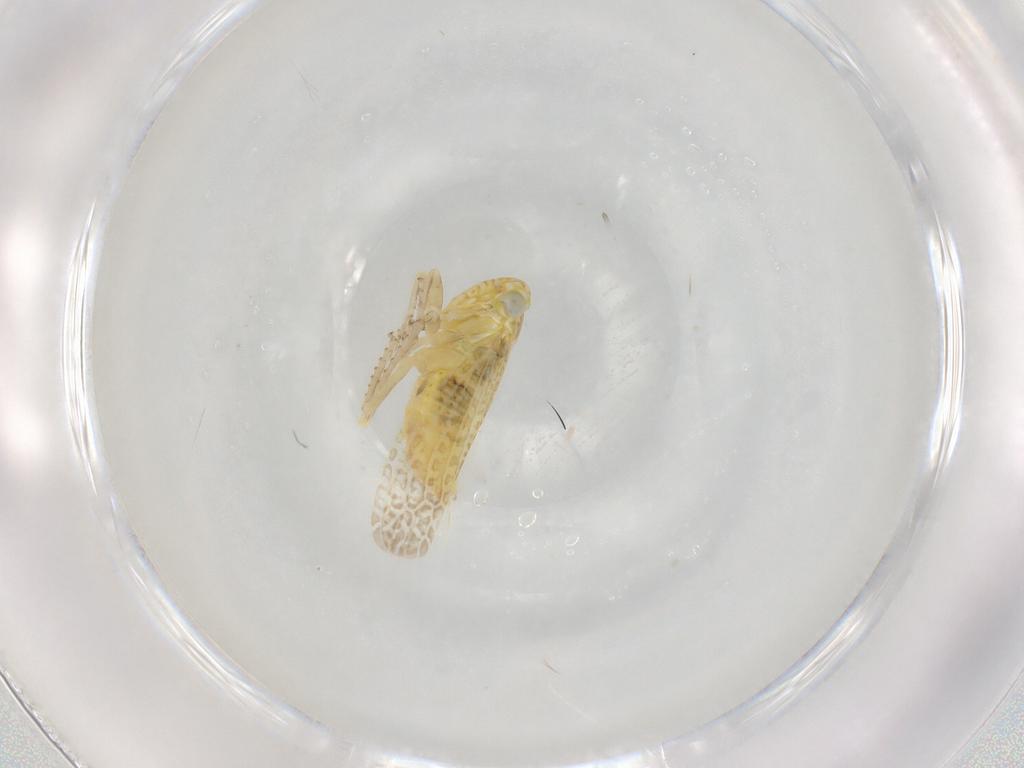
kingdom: Animalia
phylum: Arthropoda
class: Insecta
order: Hemiptera
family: Cicadellidae
